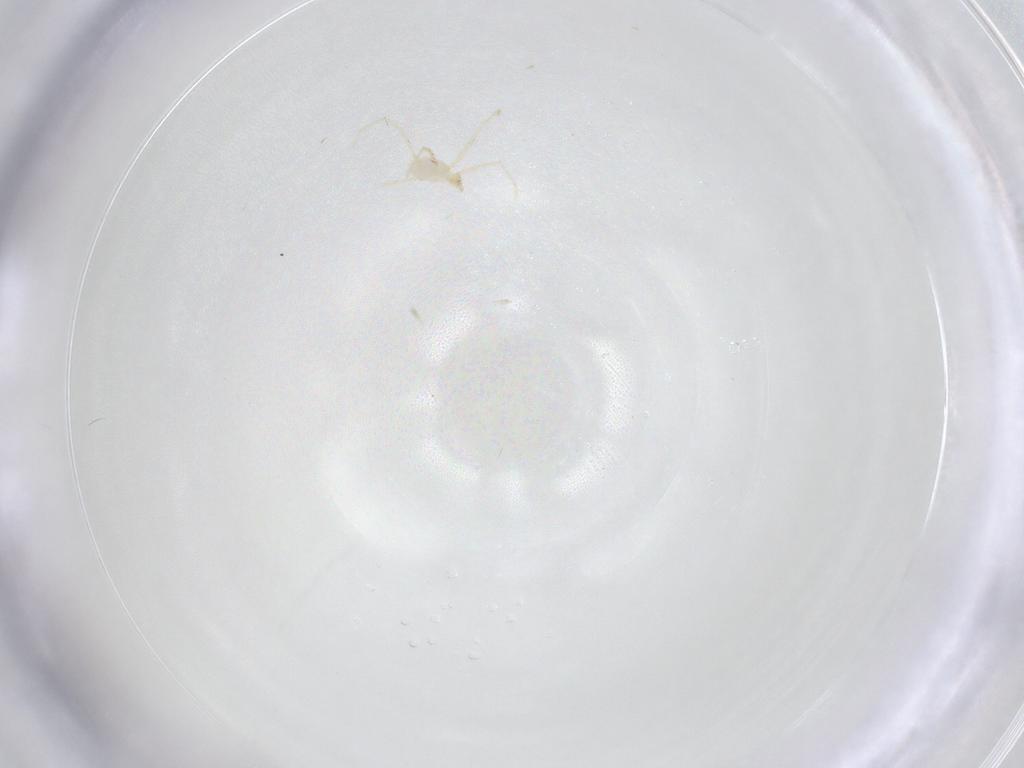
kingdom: Animalia
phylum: Arthropoda
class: Arachnida
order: Trombidiformes
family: Erythraeidae
